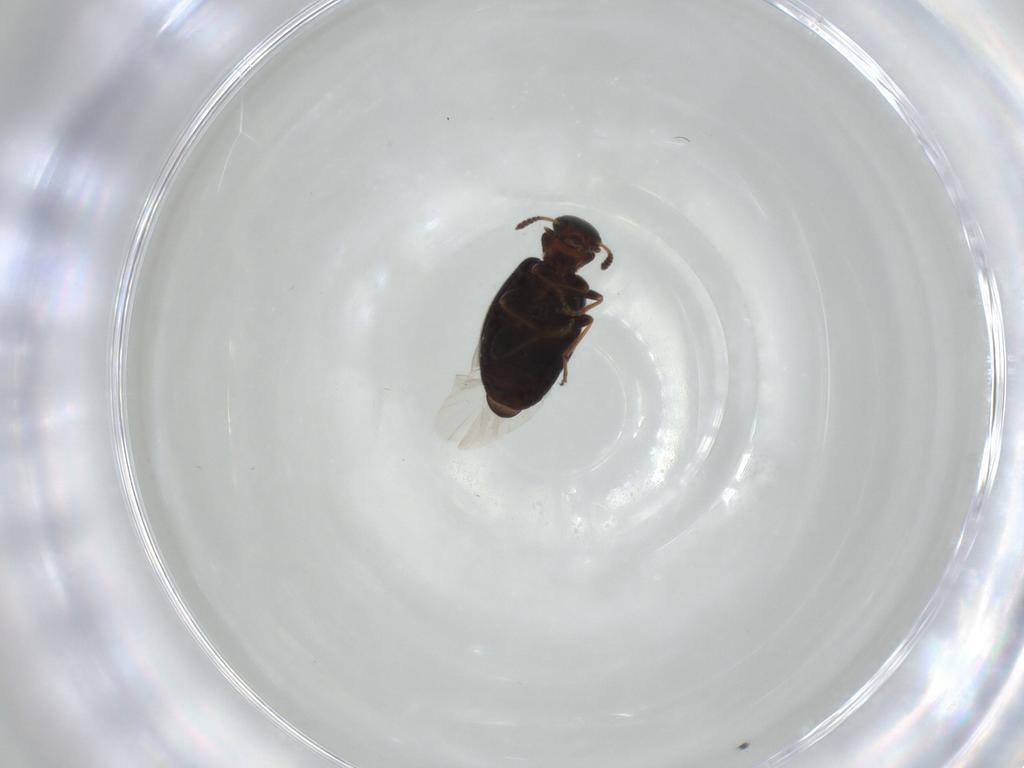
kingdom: Animalia
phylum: Arthropoda
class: Insecta
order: Coleoptera
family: Anthicidae
